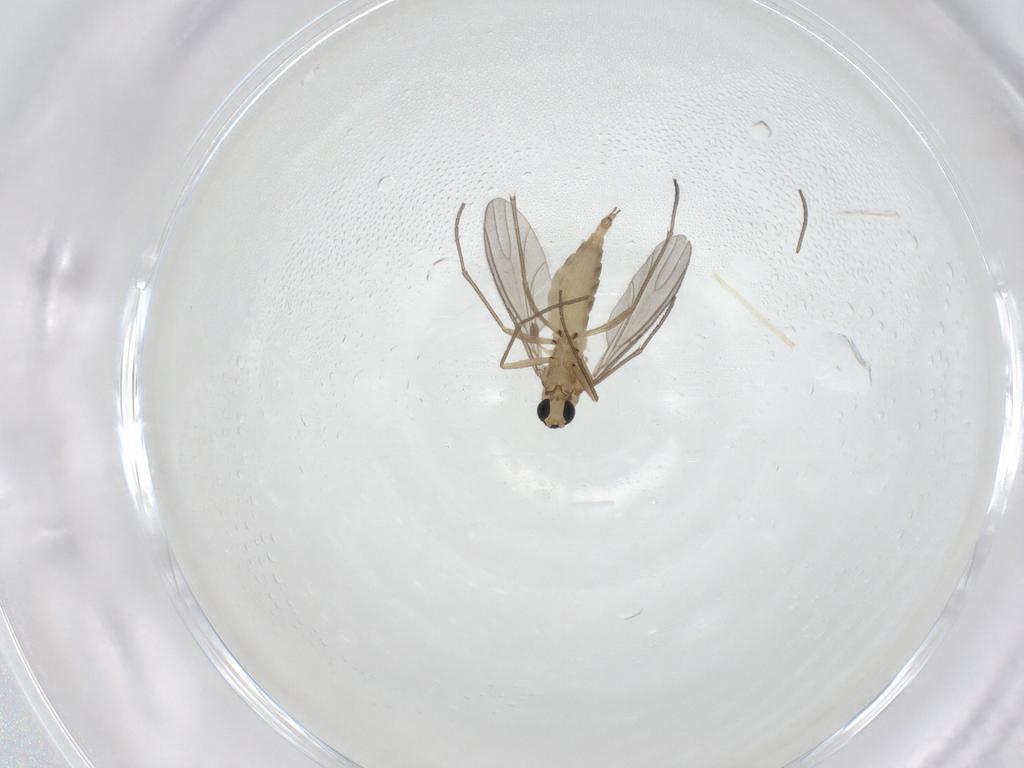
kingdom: Animalia
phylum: Arthropoda
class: Insecta
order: Diptera
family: Sciaridae
